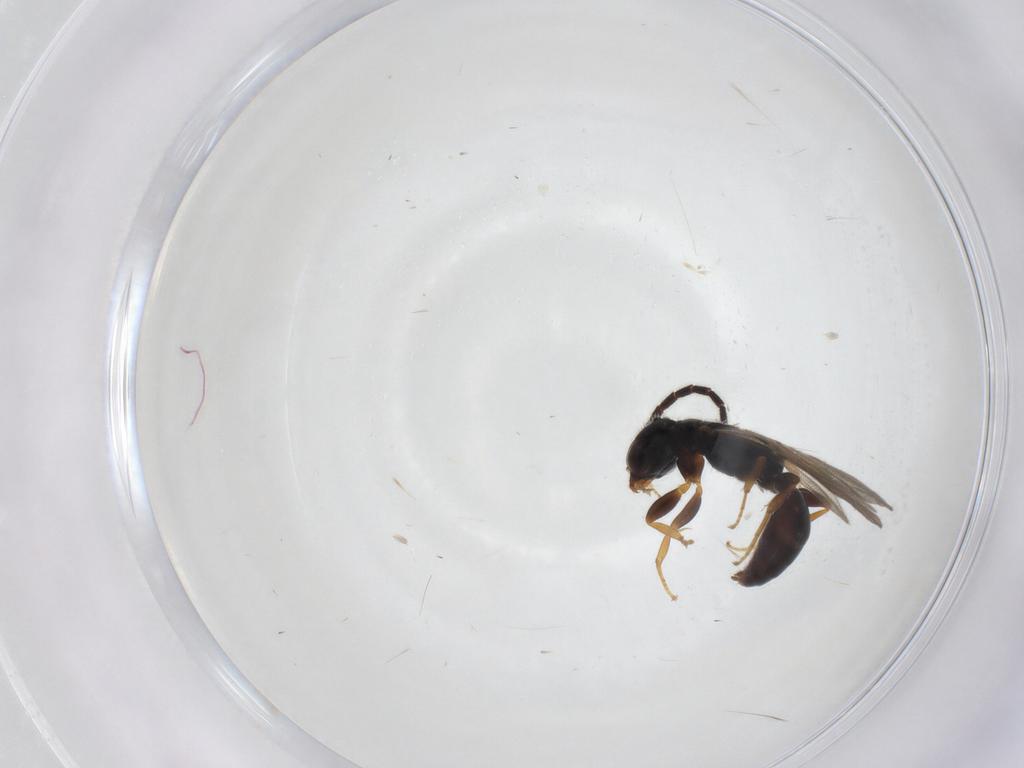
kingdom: Animalia
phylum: Arthropoda
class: Insecta
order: Hymenoptera
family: Bethylidae
